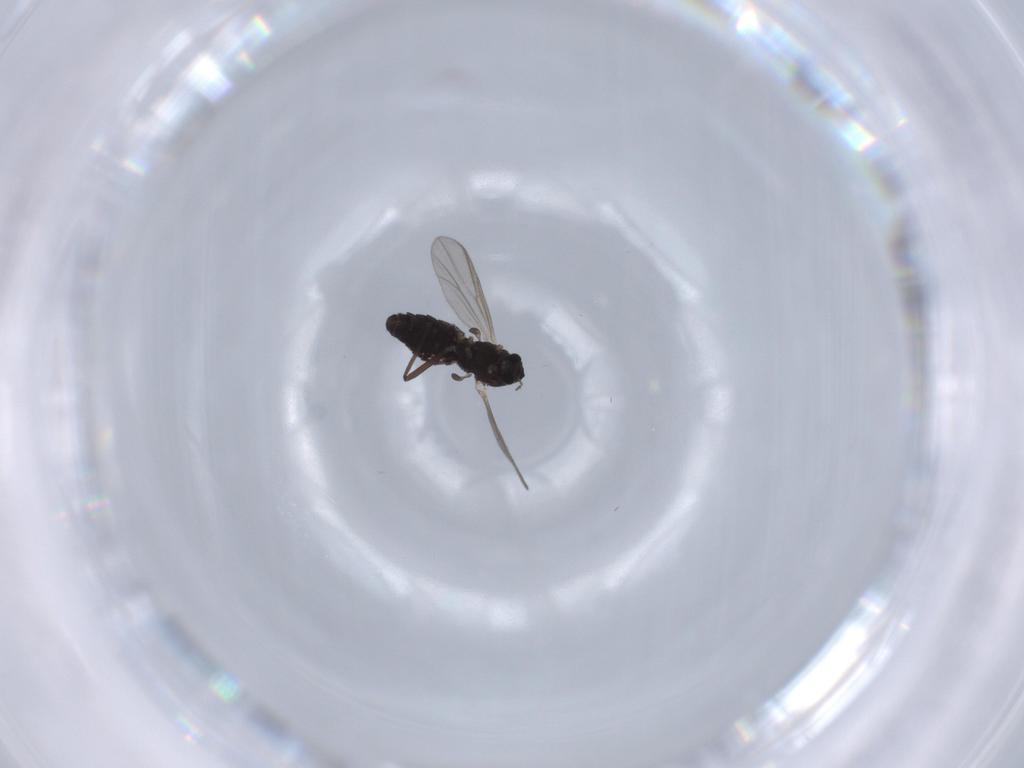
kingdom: Animalia
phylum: Arthropoda
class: Insecta
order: Diptera
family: Chironomidae
